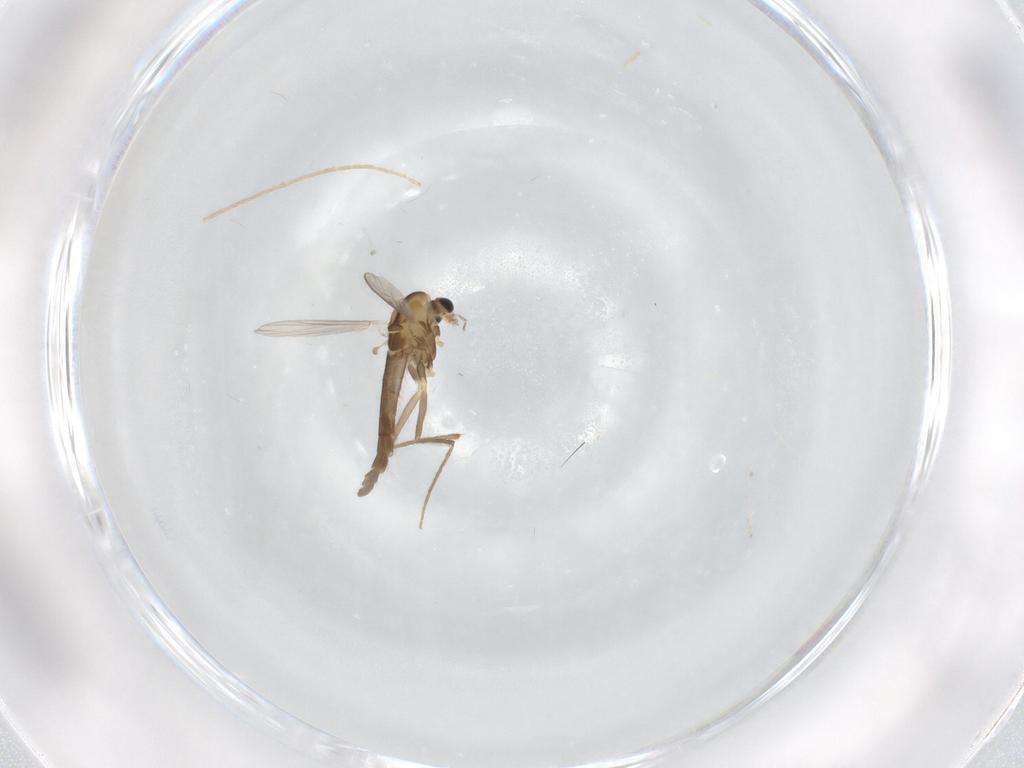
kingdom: Animalia
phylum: Arthropoda
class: Insecta
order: Diptera
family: Chironomidae
